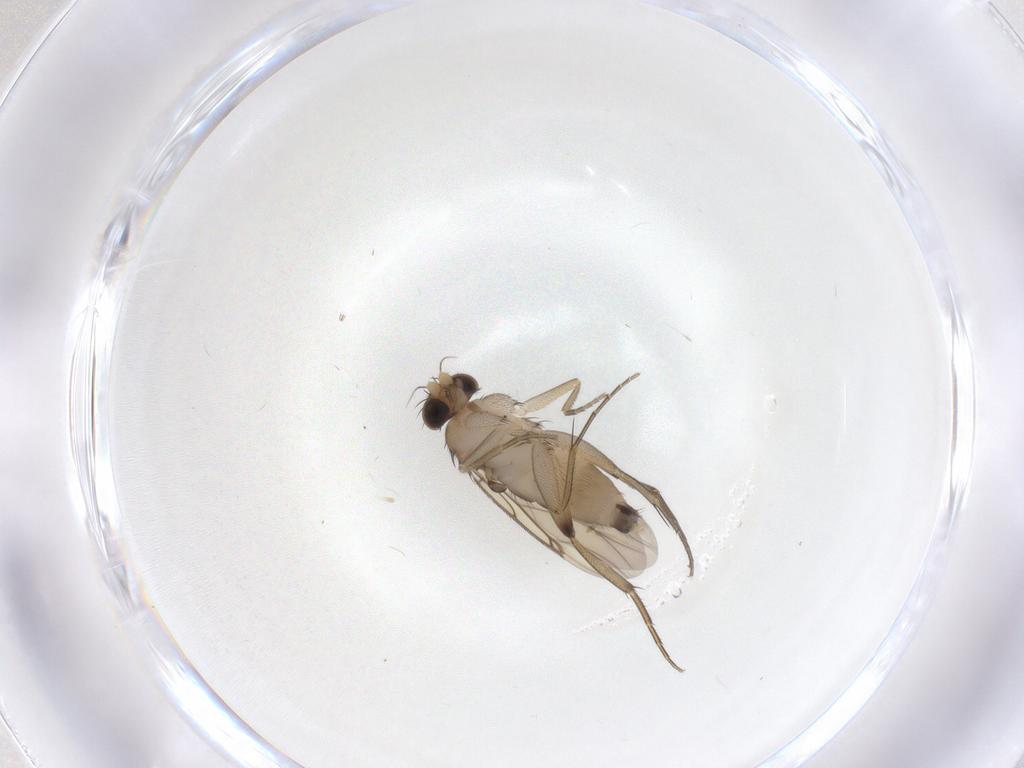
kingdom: Animalia
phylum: Arthropoda
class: Insecta
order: Diptera
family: Phoridae
